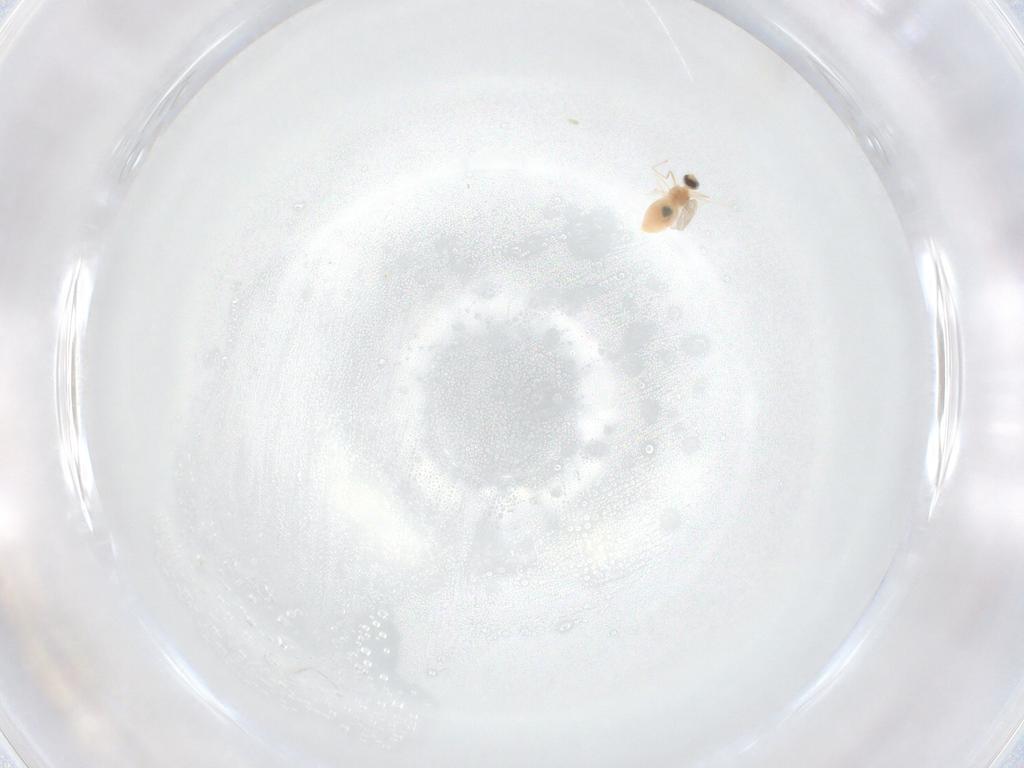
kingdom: Animalia
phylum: Arthropoda
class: Insecta
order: Diptera
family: Cecidomyiidae
